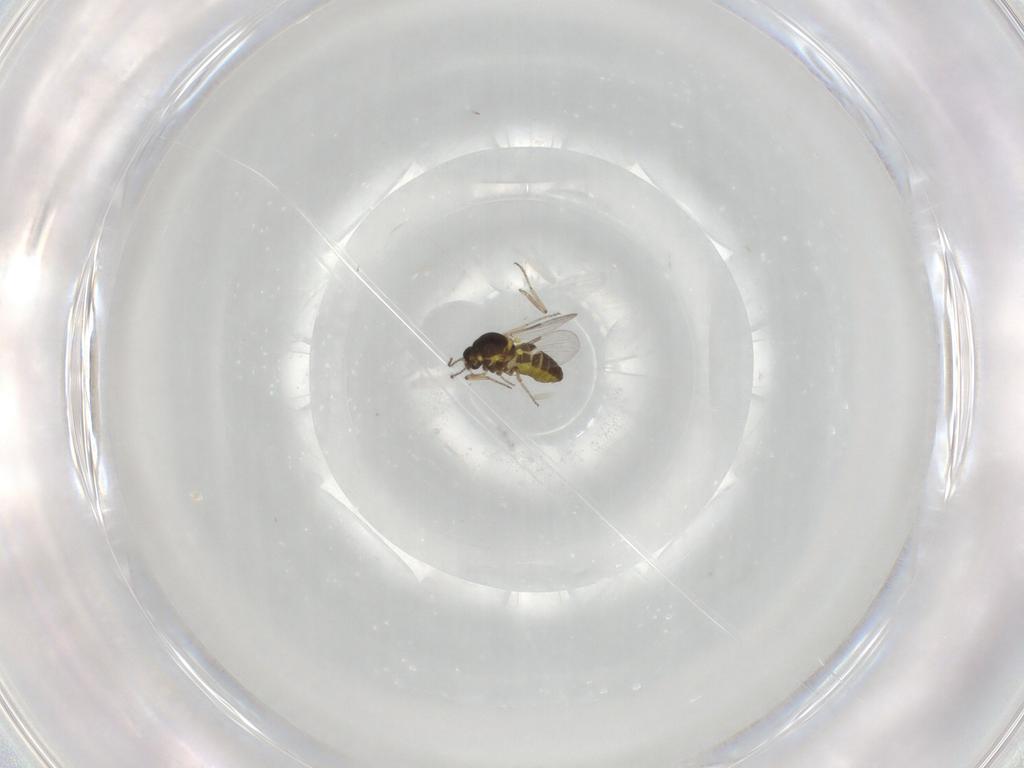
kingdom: Animalia
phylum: Arthropoda
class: Insecta
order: Diptera
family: Ceratopogonidae
